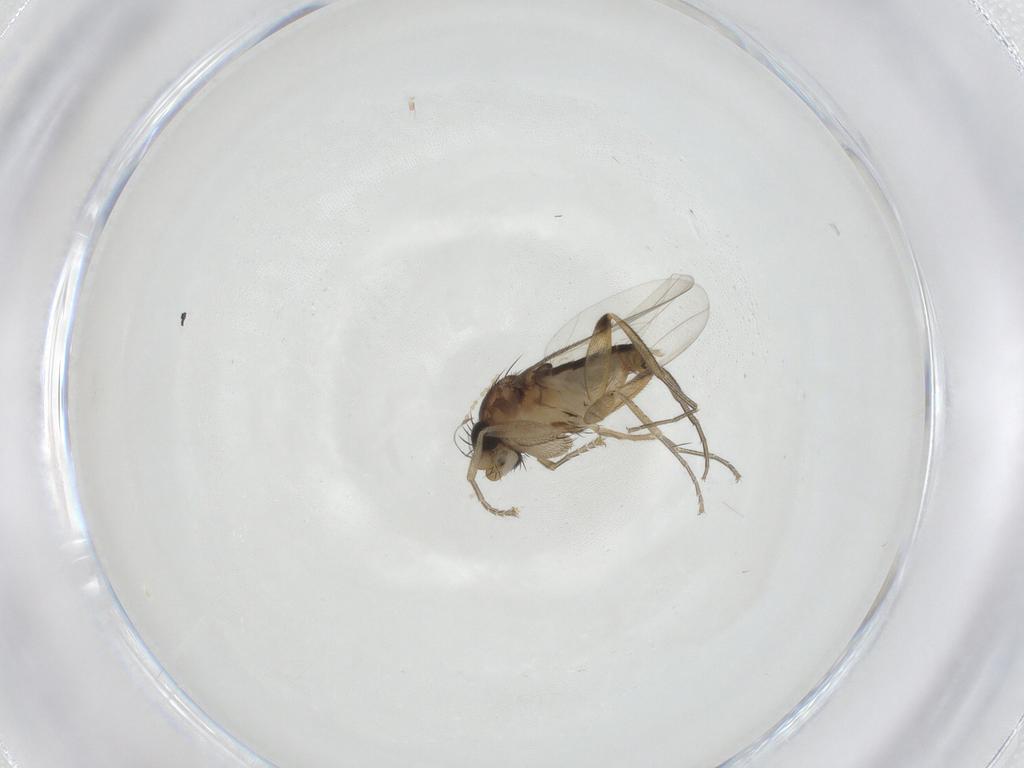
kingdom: Animalia
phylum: Arthropoda
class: Insecta
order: Diptera
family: Phoridae
